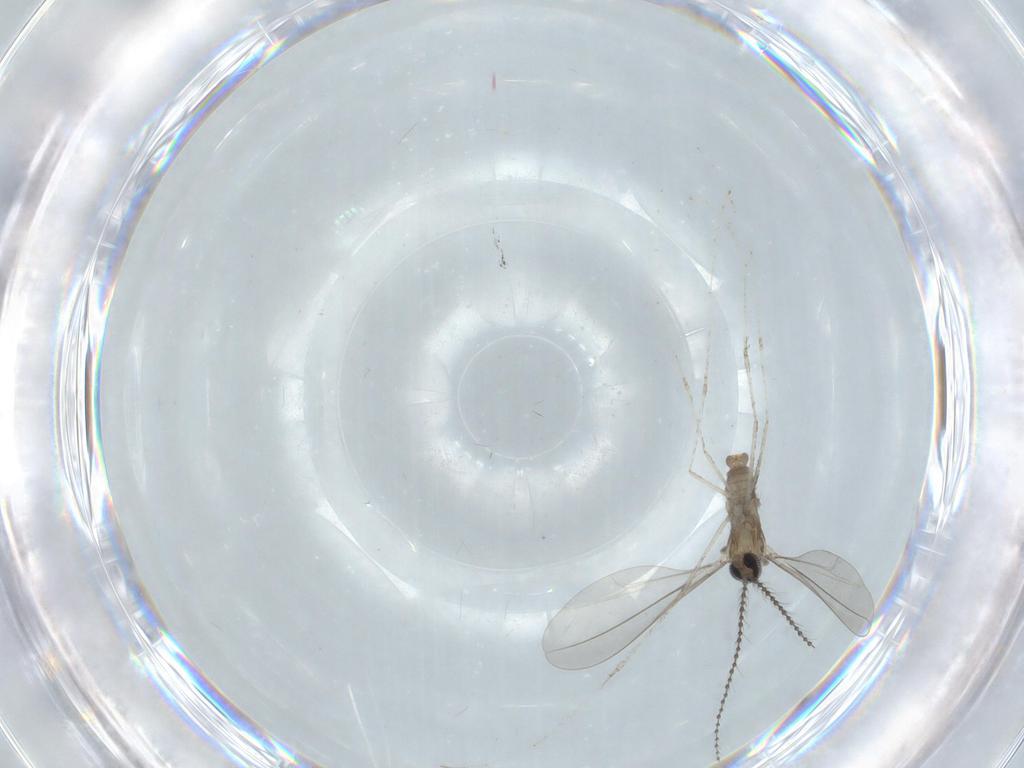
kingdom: Animalia
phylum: Arthropoda
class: Insecta
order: Diptera
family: Cecidomyiidae
